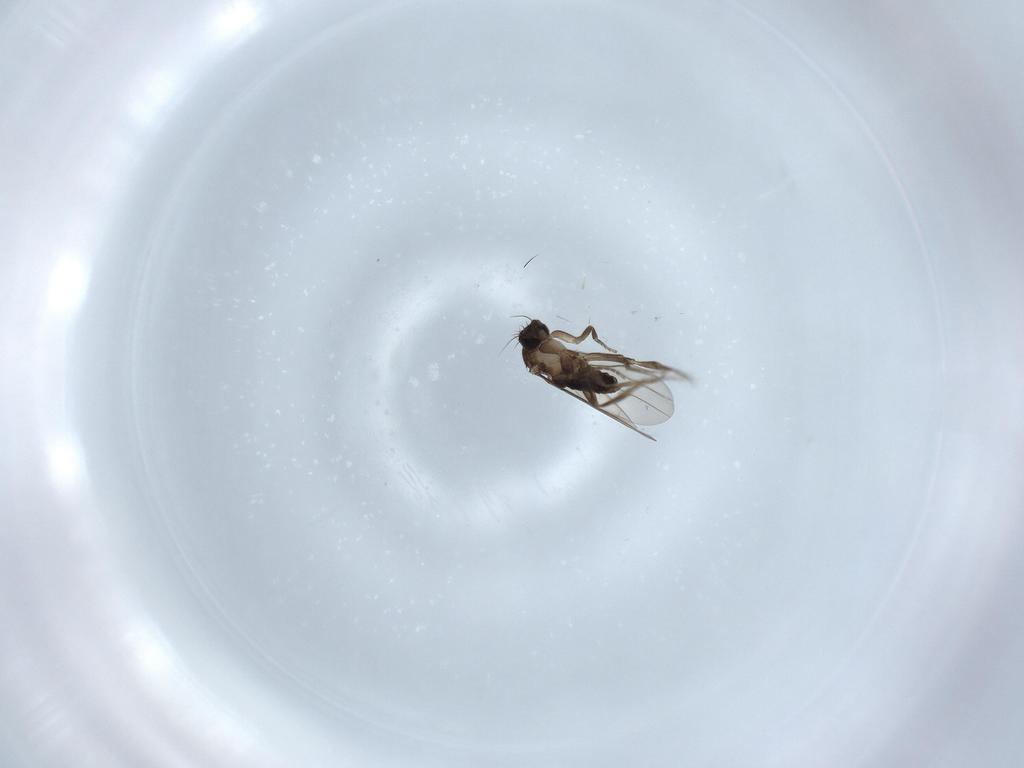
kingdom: Animalia
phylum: Arthropoda
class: Insecta
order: Diptera
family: Phoridae
